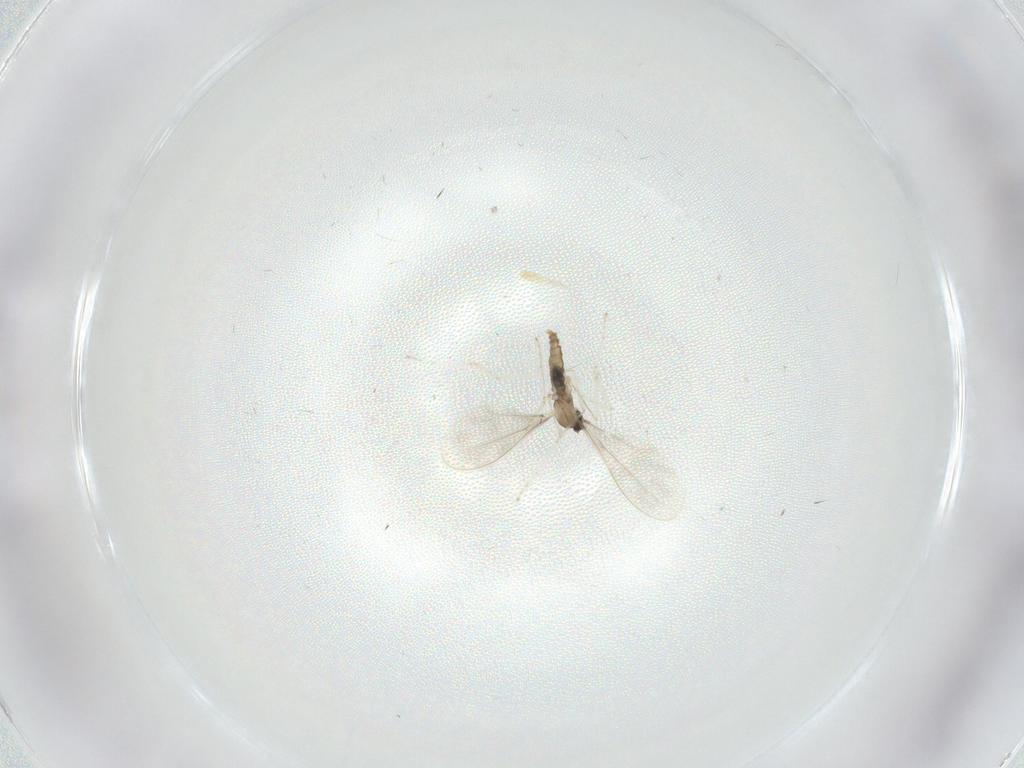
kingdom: Animalia
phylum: Arthropoda
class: Insecta
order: Diptera
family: Cecidomyiidae
